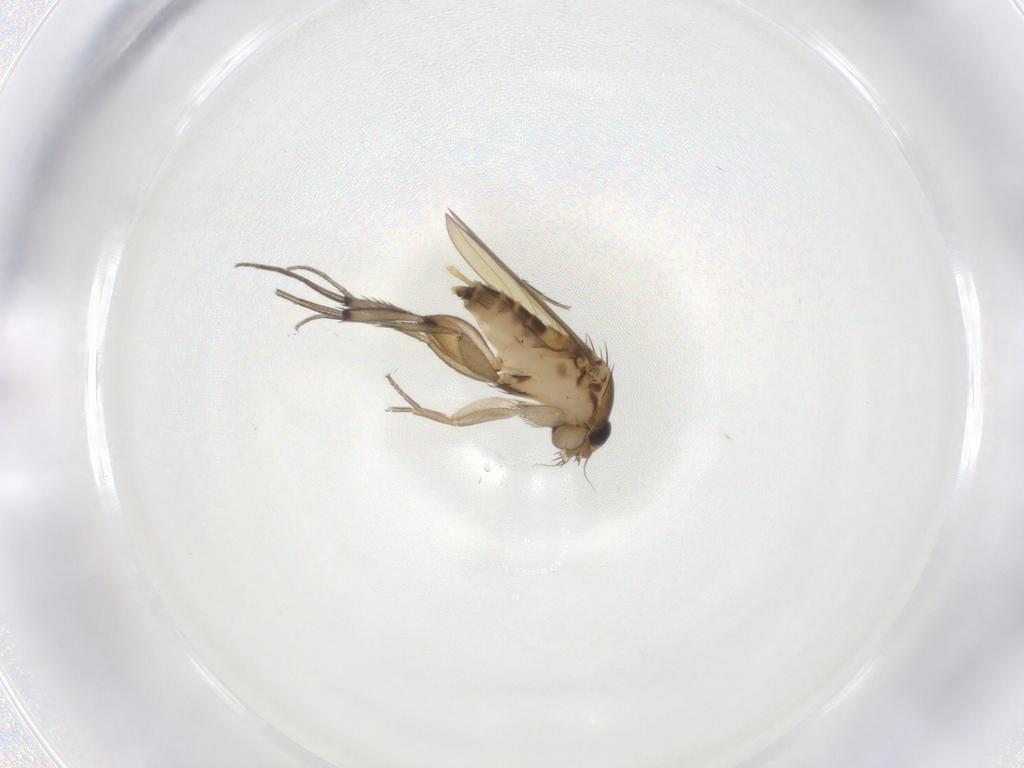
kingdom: Animalia
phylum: Arthropoda
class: Insecta
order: Diptera
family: Phoridae
